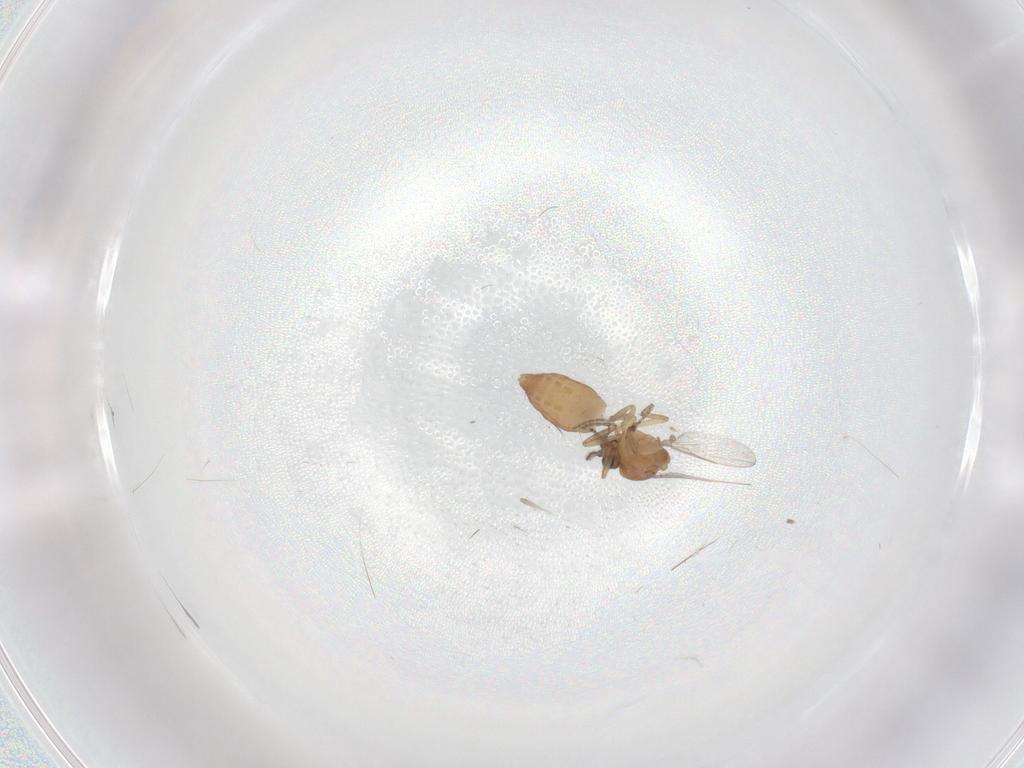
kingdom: Animalia
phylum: Arthropoda
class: Insecta
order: Diptera
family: Ceratopogonidae
